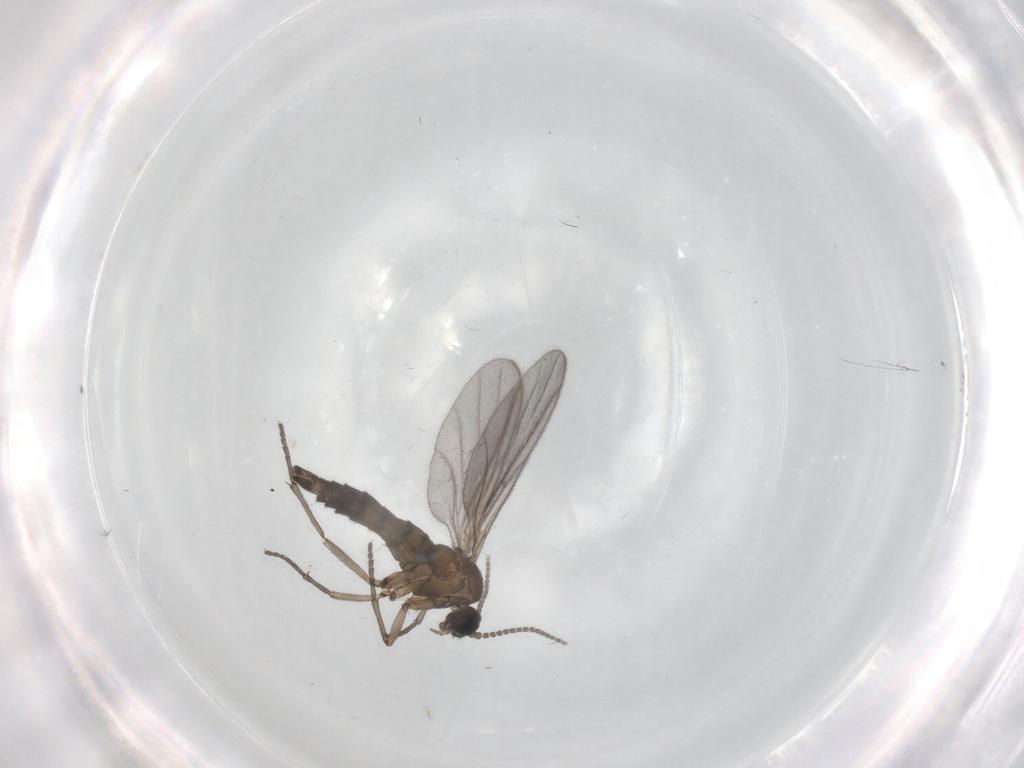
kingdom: Animalia
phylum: Arthropoda
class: Insecta
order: Diptera
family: Sciaridae
